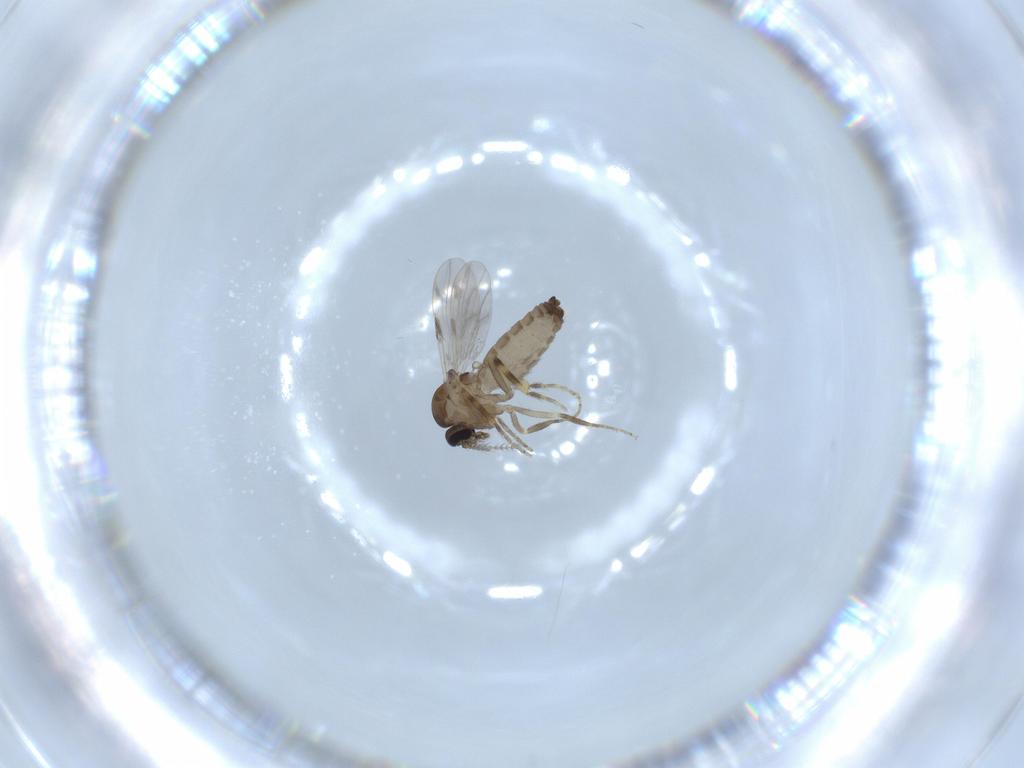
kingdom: Animalia
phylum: Arthropoda
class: Insecta
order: Diptera
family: Ceratopogonidae
